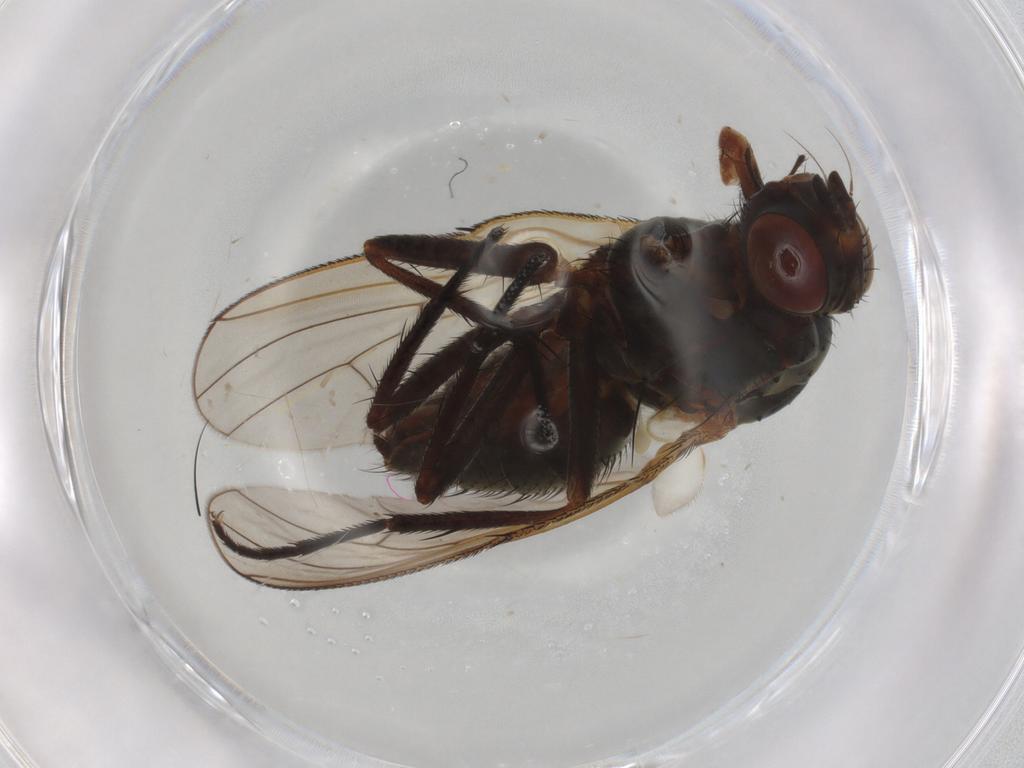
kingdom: Animalia
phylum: Arthropoda
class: Insecta
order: Diptera
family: Anthomyiidae
